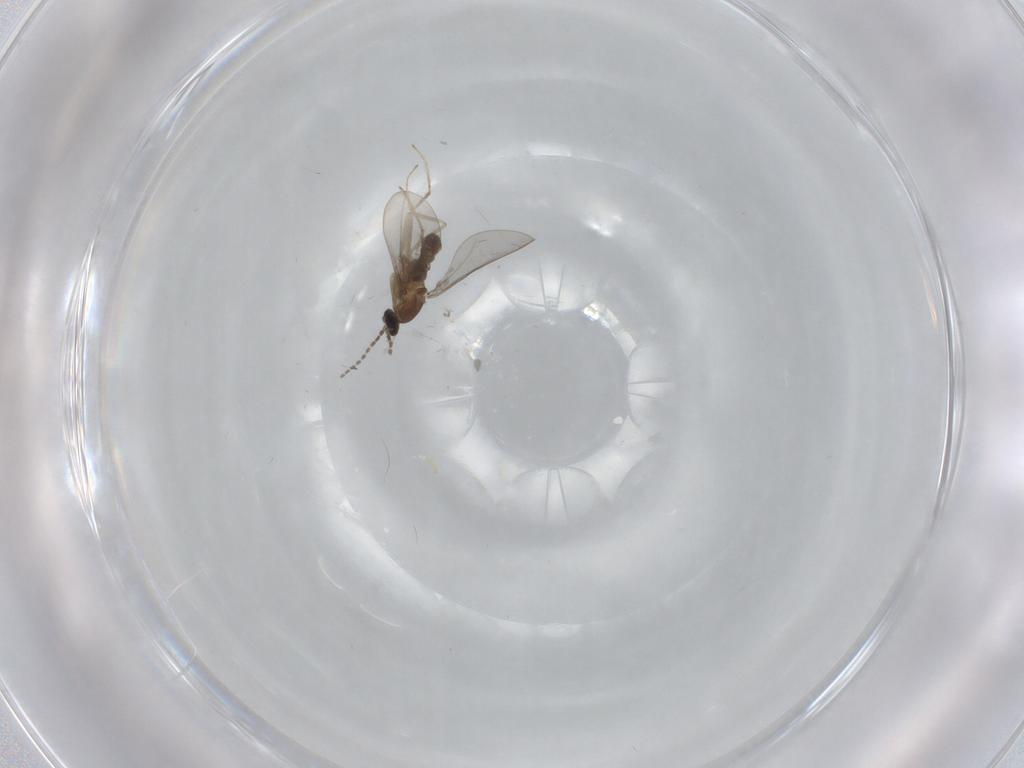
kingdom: Animalia
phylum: Arthropoda
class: Insecta
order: Diptera
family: Cecidomyiidae
